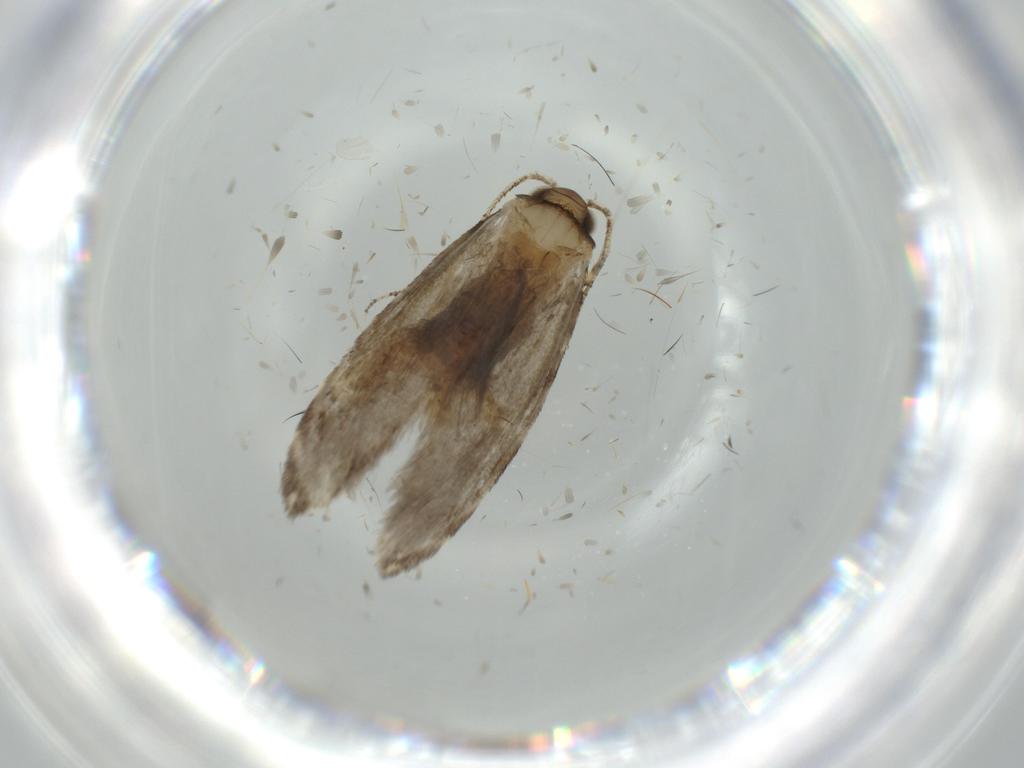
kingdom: Animalia
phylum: Arthropoda
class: Insecta
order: Lepidoptera
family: Tineidae
